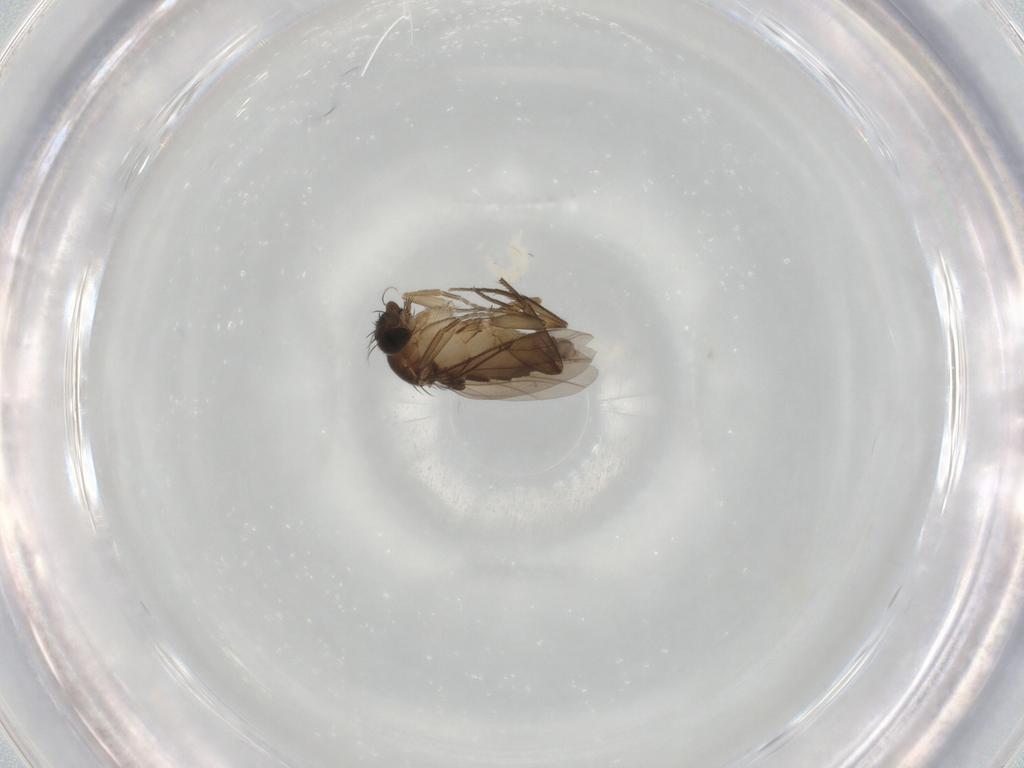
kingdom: Animalia
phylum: Arthropoda
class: Insecta
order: Diptera
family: Phoridae
